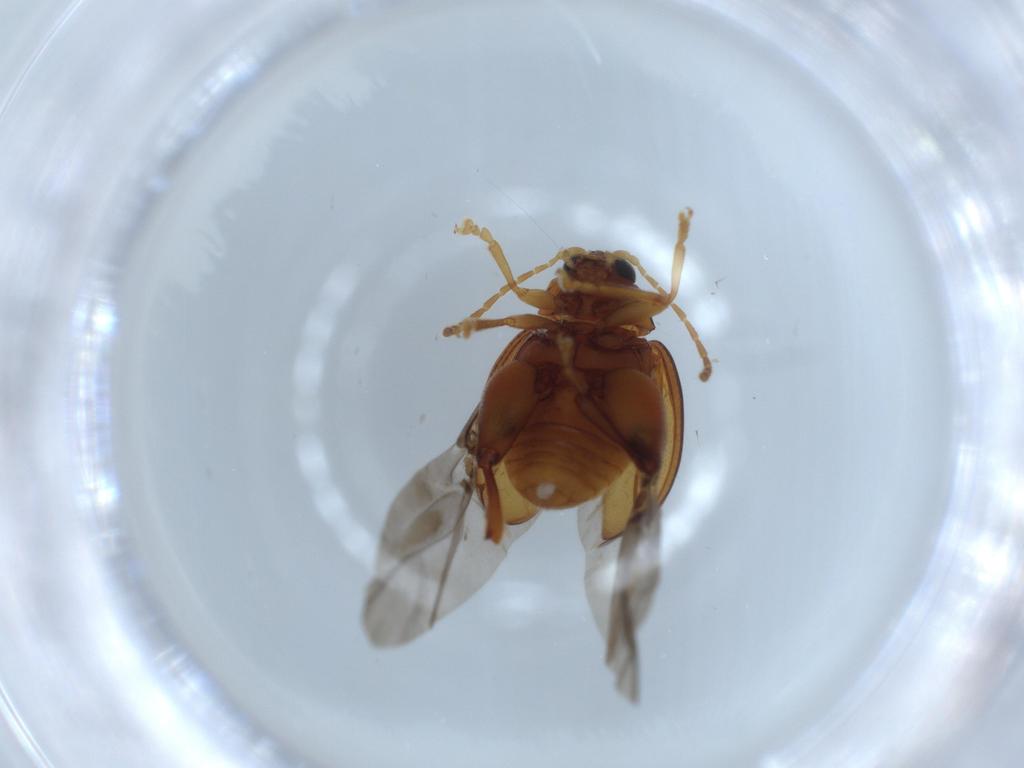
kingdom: Animalia
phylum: Arthropoda
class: Insecta
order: Coleoptera
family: Chrysomelidae
